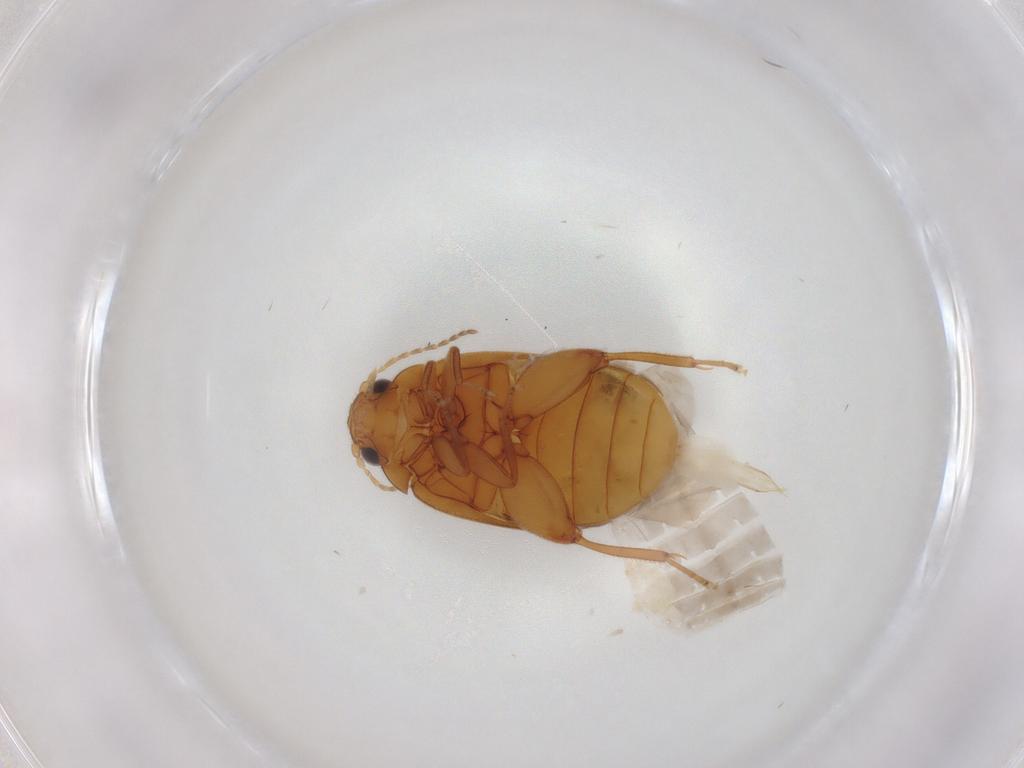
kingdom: Animalia
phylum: Arthropoda
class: Insecta
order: Coleoptera
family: Scirtidae
